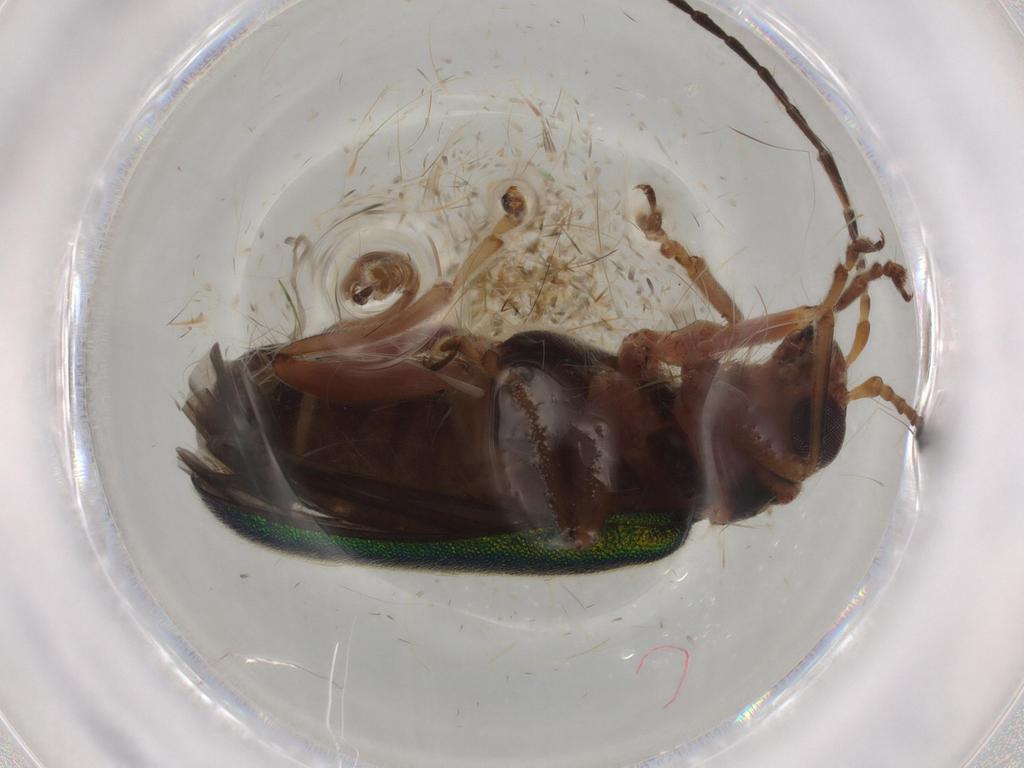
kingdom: Animalia
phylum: Arthropoda
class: Insecta
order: Coleoptera
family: Chrysomelidae
